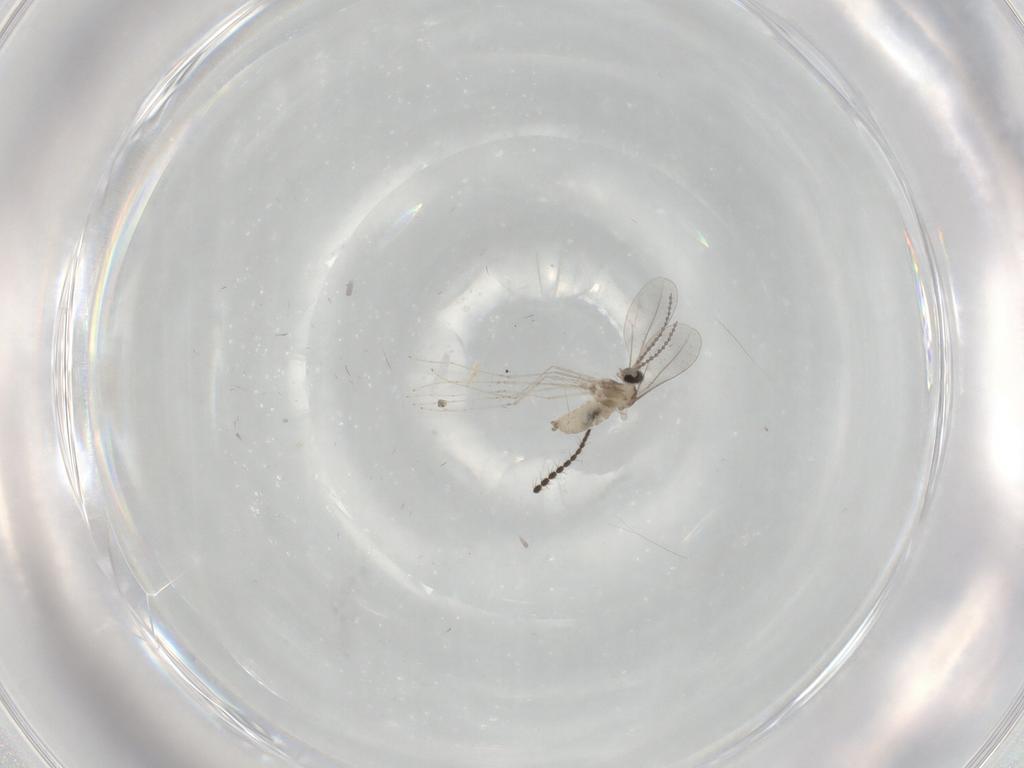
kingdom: Animalia
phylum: Arthropoda
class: Insecta
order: Diptera
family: Limoniidae
